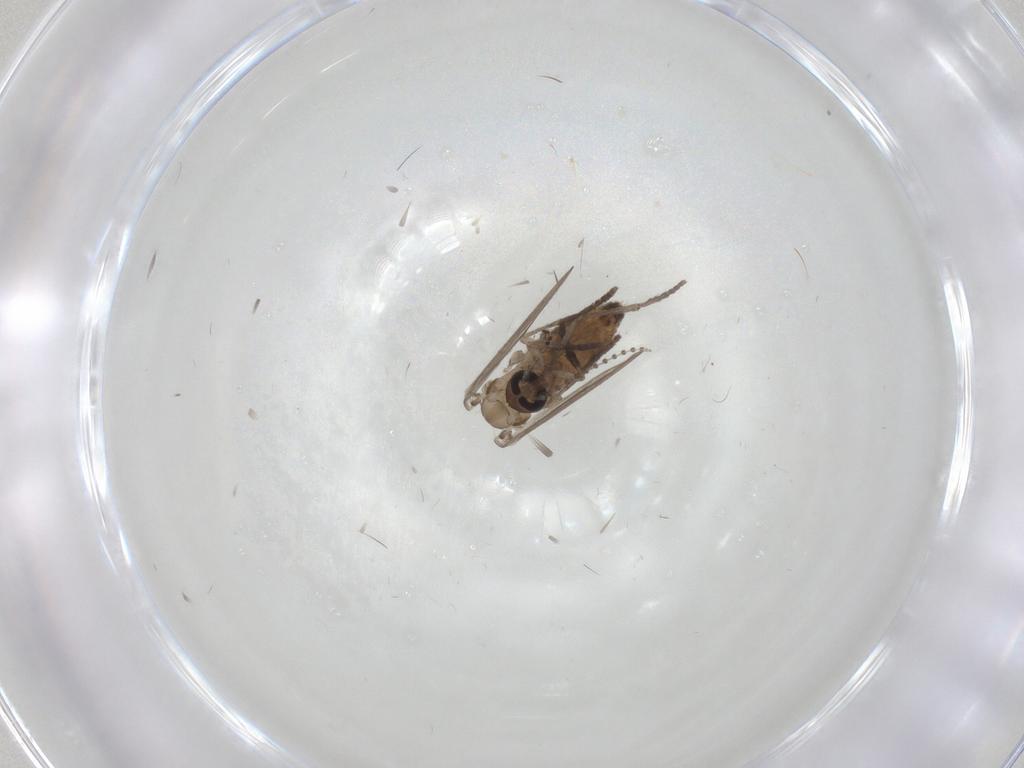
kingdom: Animalia
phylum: Arthropoda
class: Insecta
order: Diptera
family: Psychodidae
